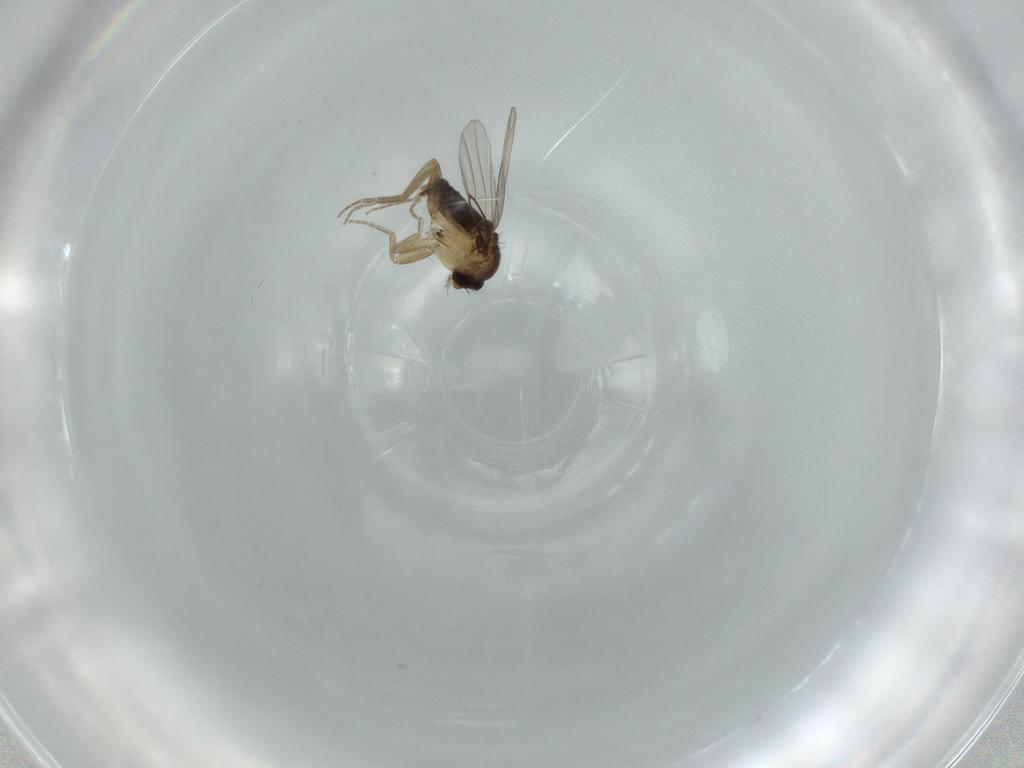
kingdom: Animalia
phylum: Arthropoda
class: Insecta
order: Diptera
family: Phoridae
